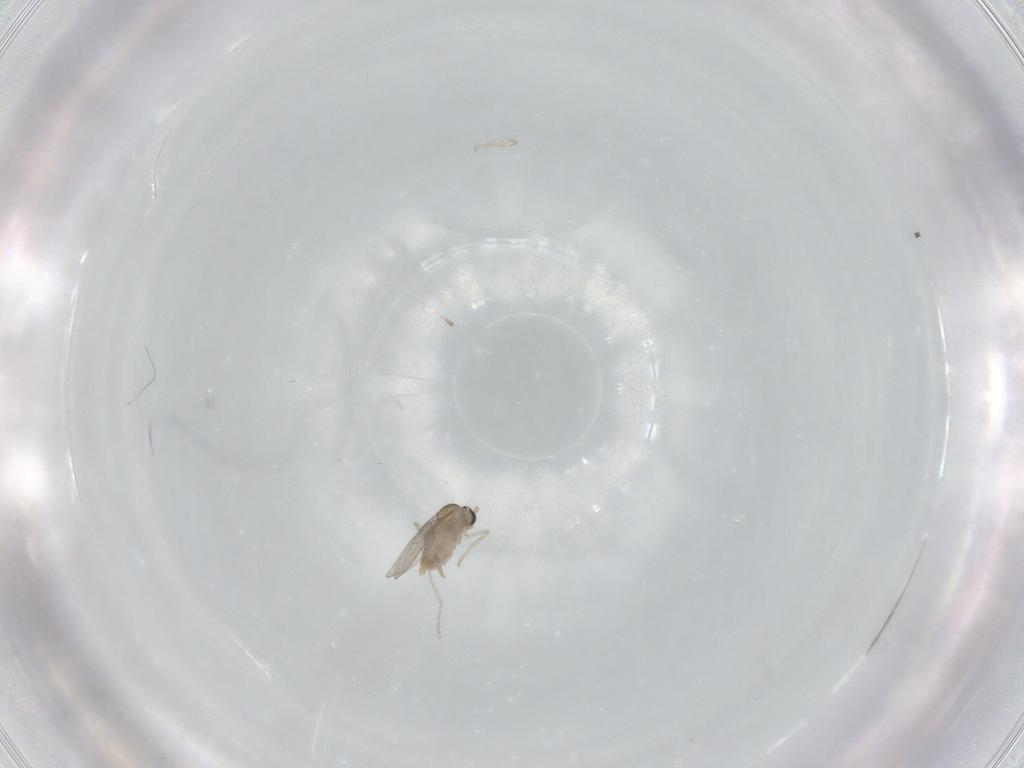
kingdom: Animalia
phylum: Arthropoda
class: Insecta
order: Diptera
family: Cecidomyiidae
